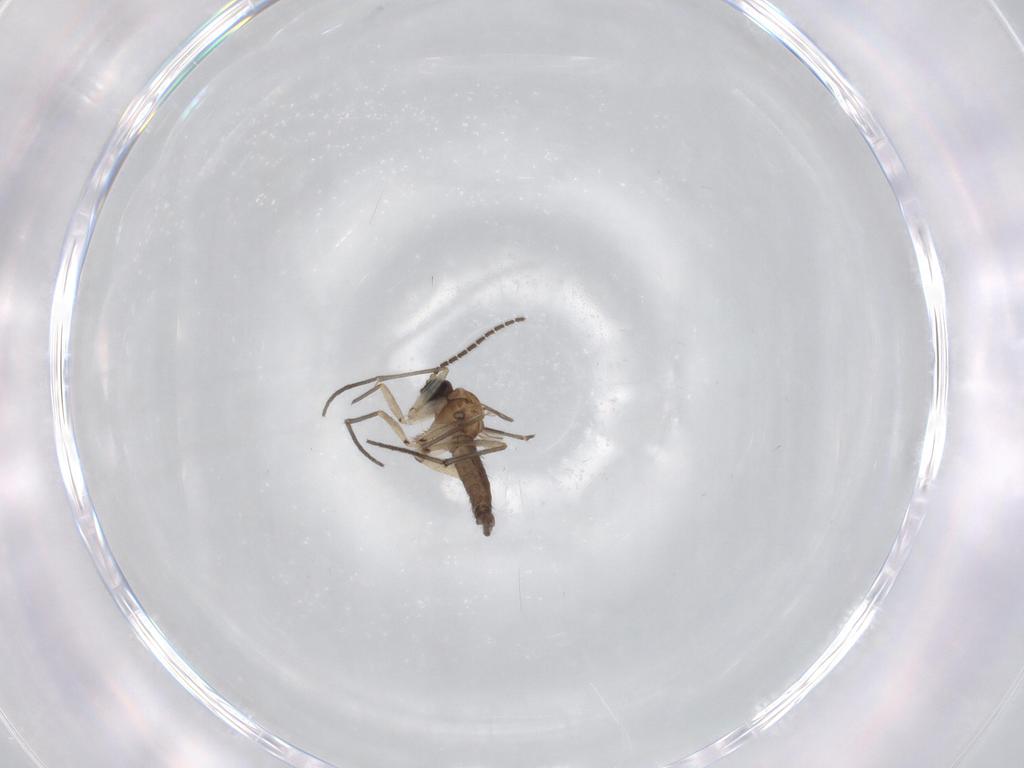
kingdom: Animalia
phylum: Arthropoda
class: Insecta
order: Diptera
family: Sciaridae
